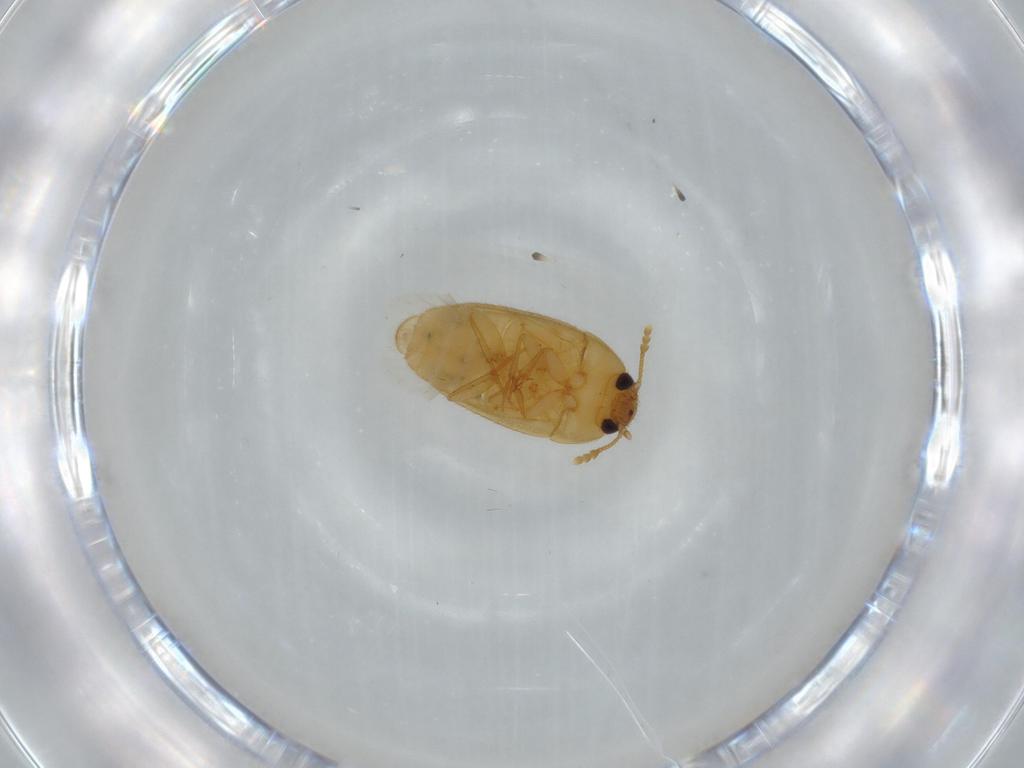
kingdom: Animalia
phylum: Arthropoda
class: Insecta
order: Coleoptera
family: Mycetophagidae
